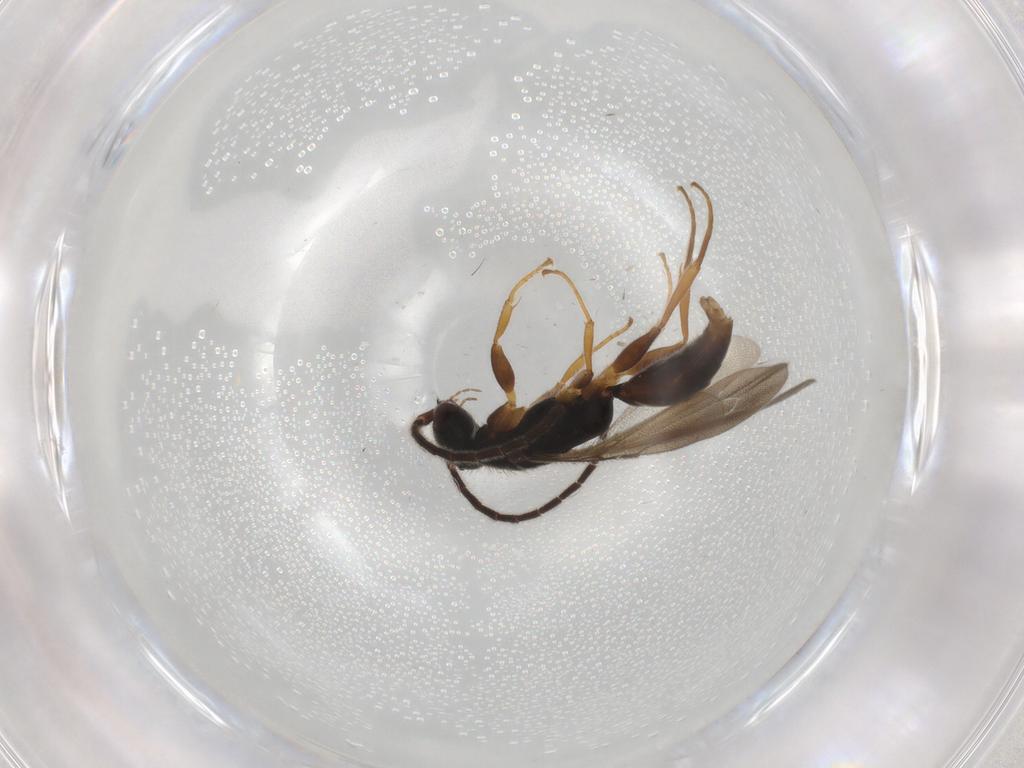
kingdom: Animalia
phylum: Arthropoda
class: Insecta
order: Hymenoptera
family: Bethylidae
